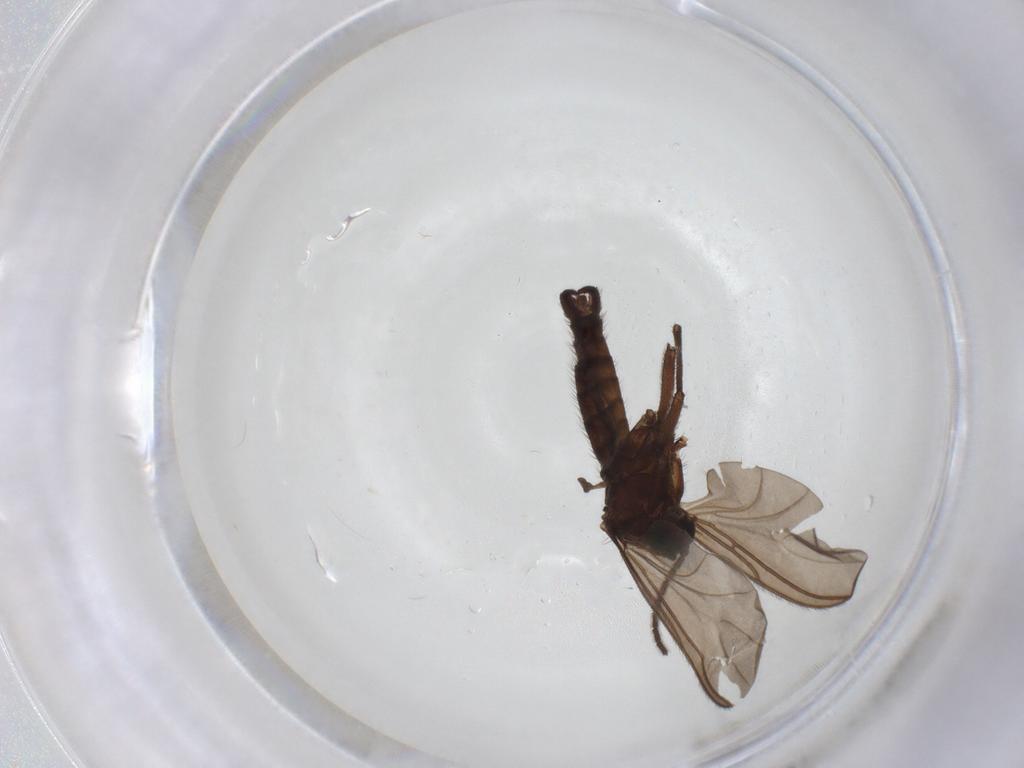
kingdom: Animalia
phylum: Arthropoda
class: Insecta
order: Diptera
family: Sciaridae
